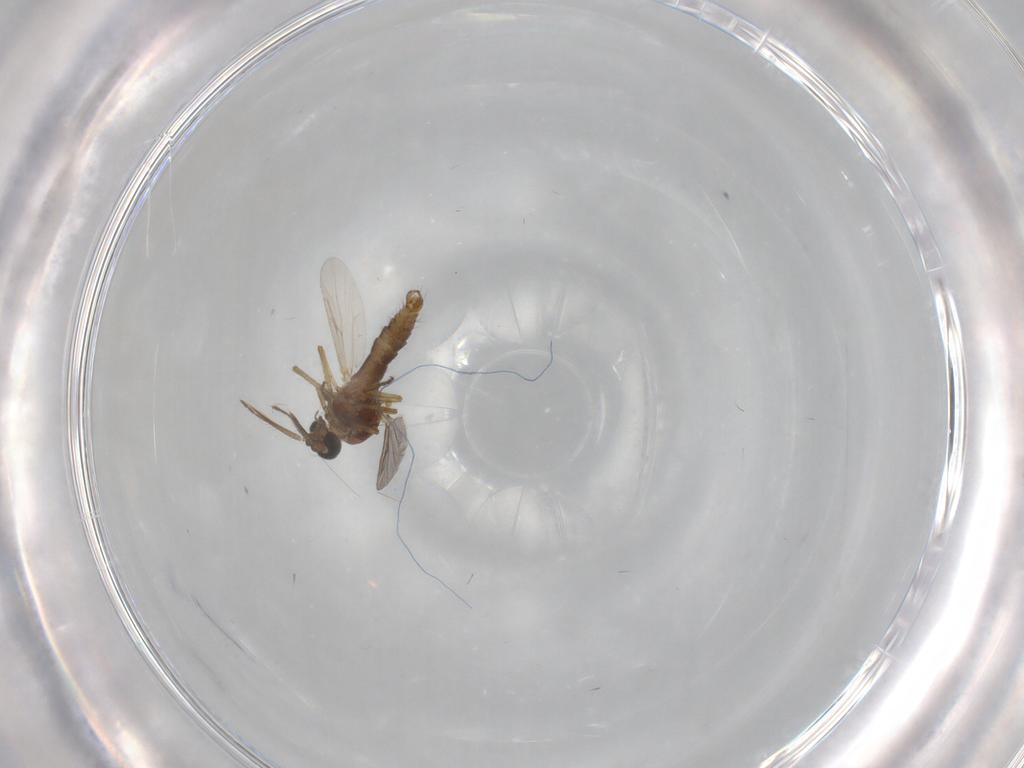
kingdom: Animalia
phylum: Arthropoda
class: Insecta
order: Diptera
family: Ceratopogonidae
